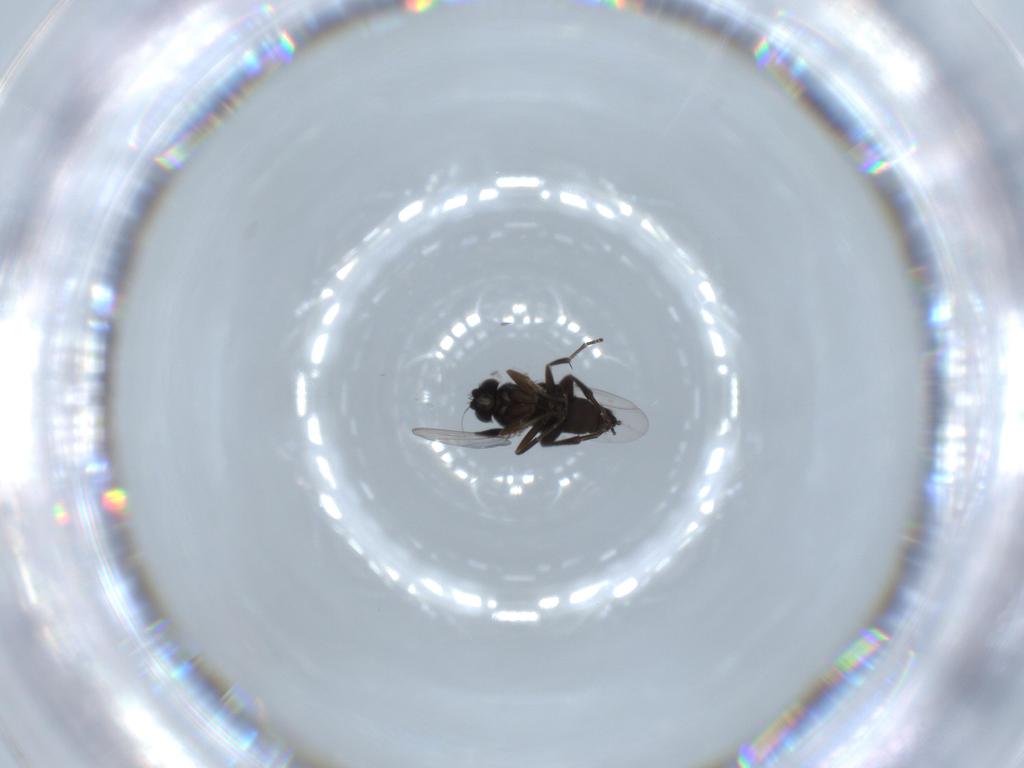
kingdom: Animalia
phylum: Arthropoda
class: Insecta
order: Diptera
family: Phoridae
